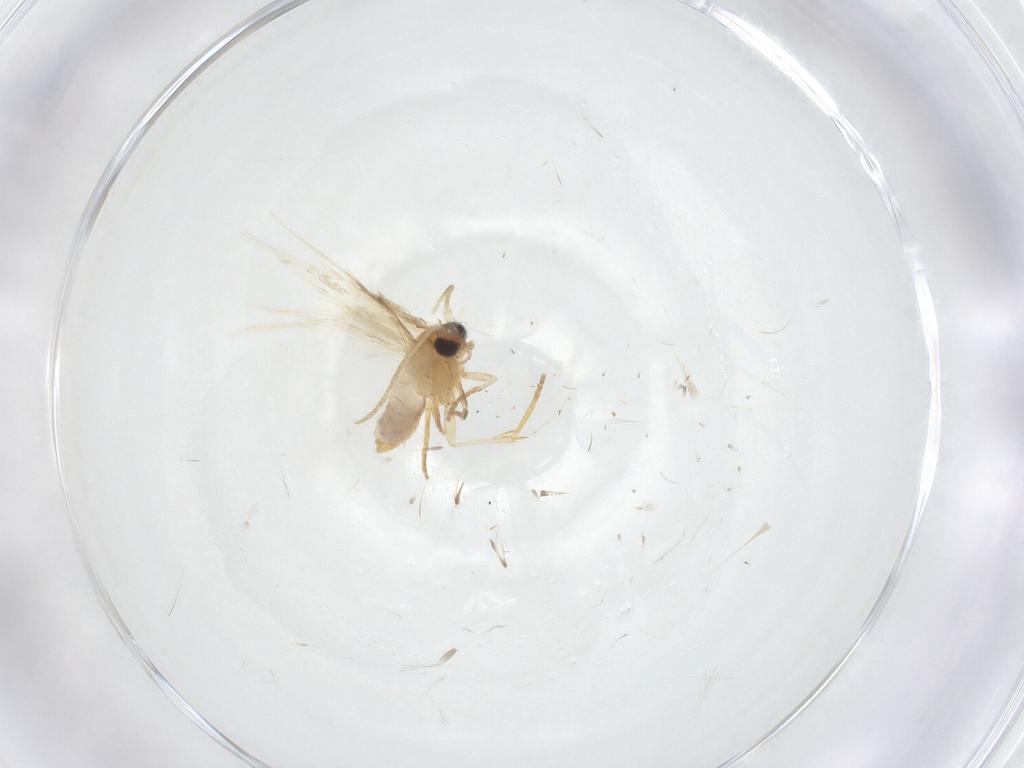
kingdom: Animalia
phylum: Arthropoda
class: Insecta
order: Lepidoptera
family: Nepticulidae
